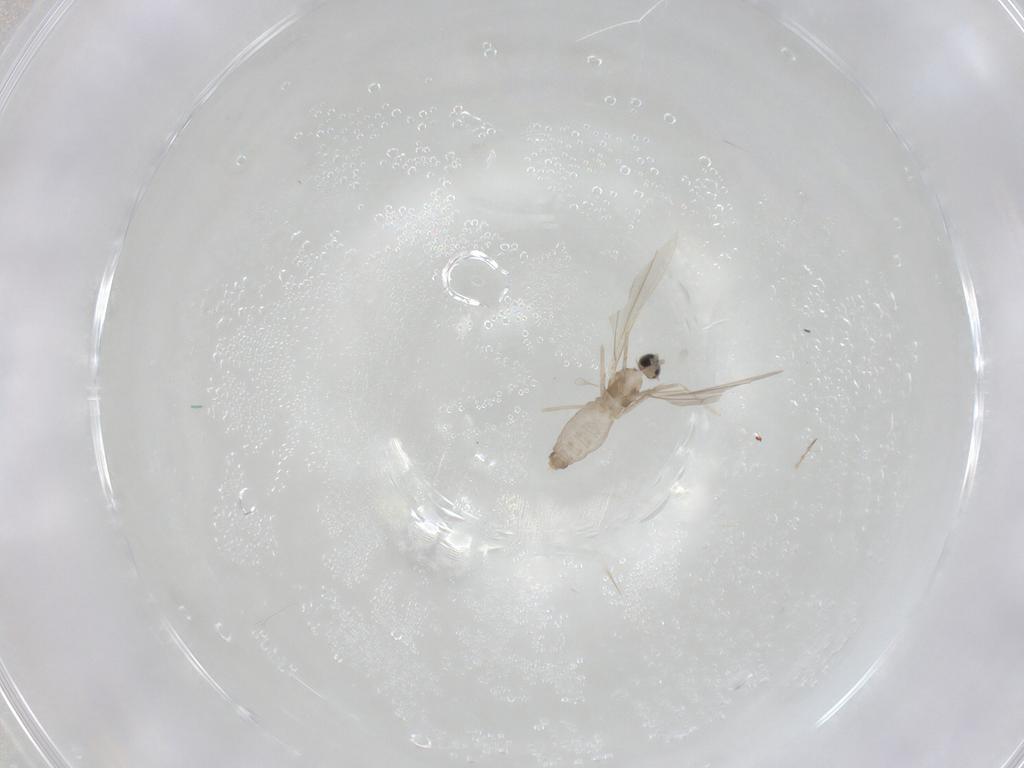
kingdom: Animalia
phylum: Arthropoda
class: Insecta
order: Diptera
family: Cecidomyiidae
